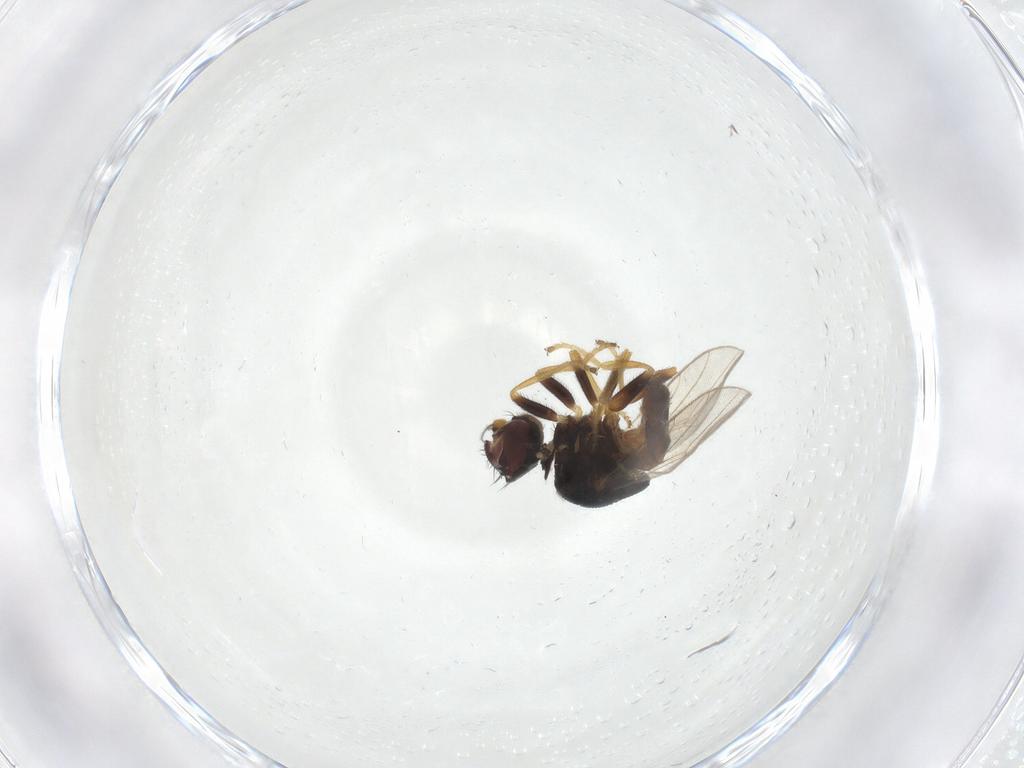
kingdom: Animalia
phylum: Arthropoda
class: Insecta
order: Diptera
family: Chloropidae
